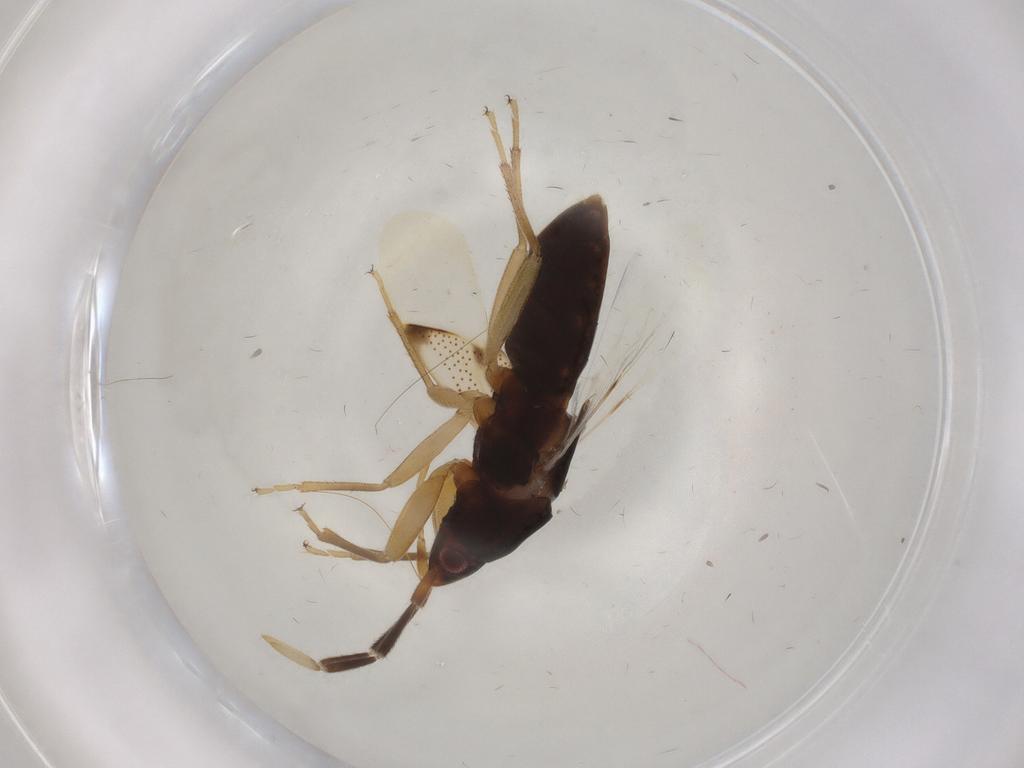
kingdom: Animalia
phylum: Arthropoda
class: Insecta
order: Hemiptera
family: Rhyparochromidae
